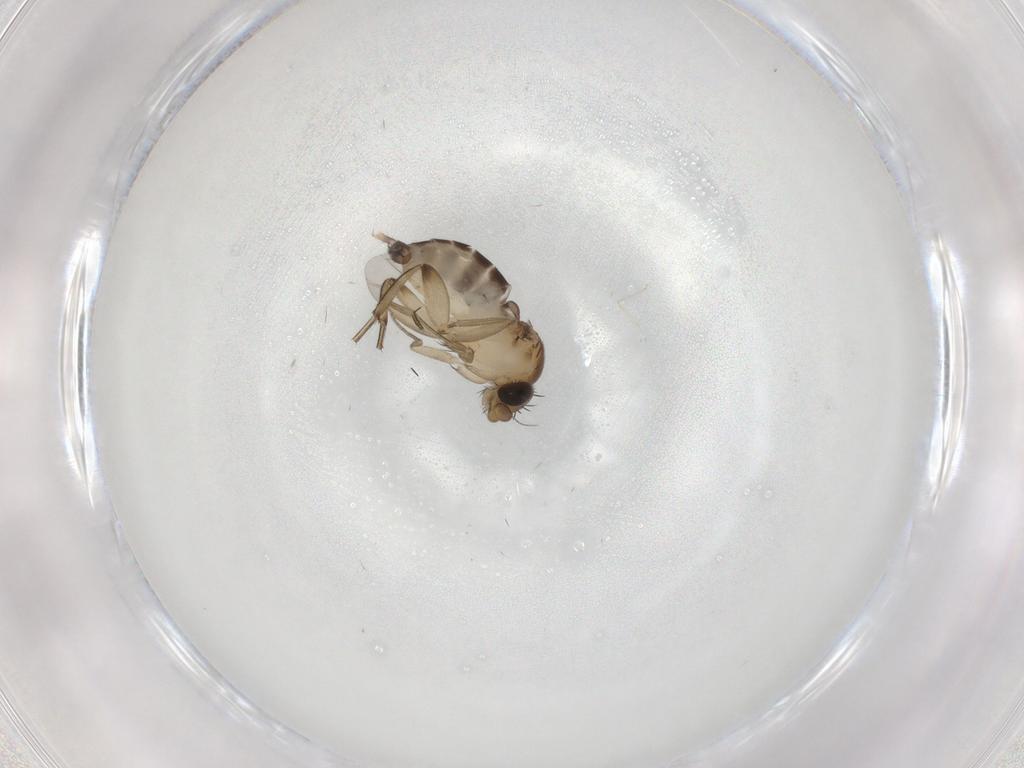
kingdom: Animalia
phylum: Arthropoda
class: Insecta
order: Diptera
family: Phoridae
